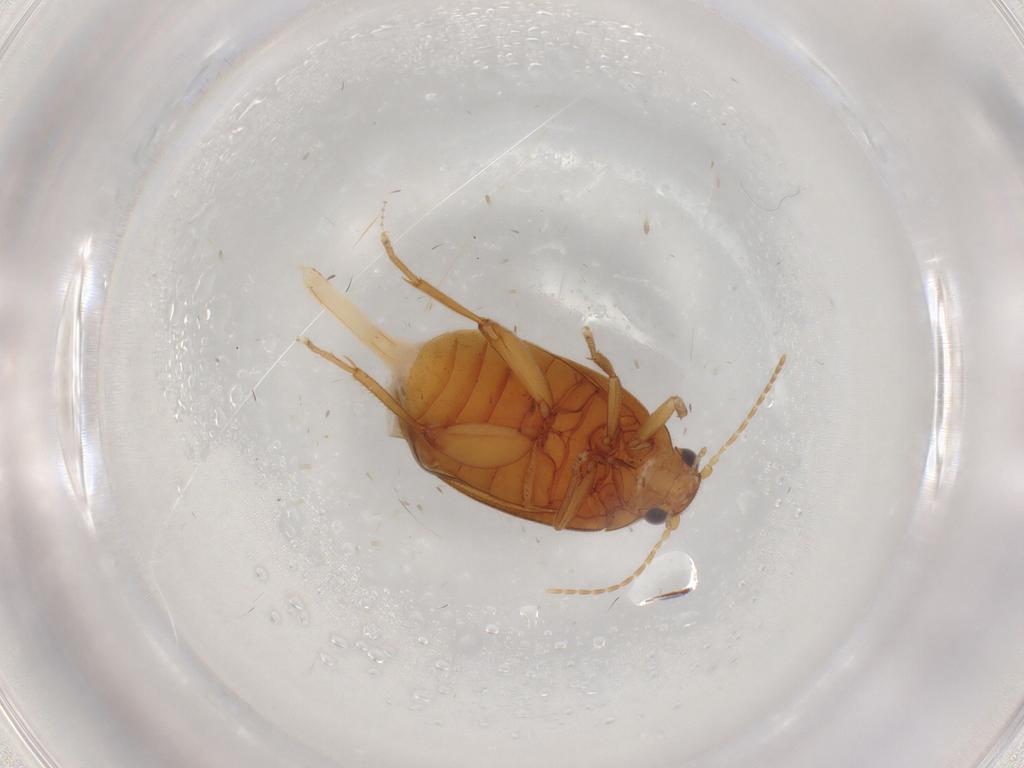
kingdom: Animalia
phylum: Arthropoda
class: Insecta
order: Coleoptera
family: Scirtidae
